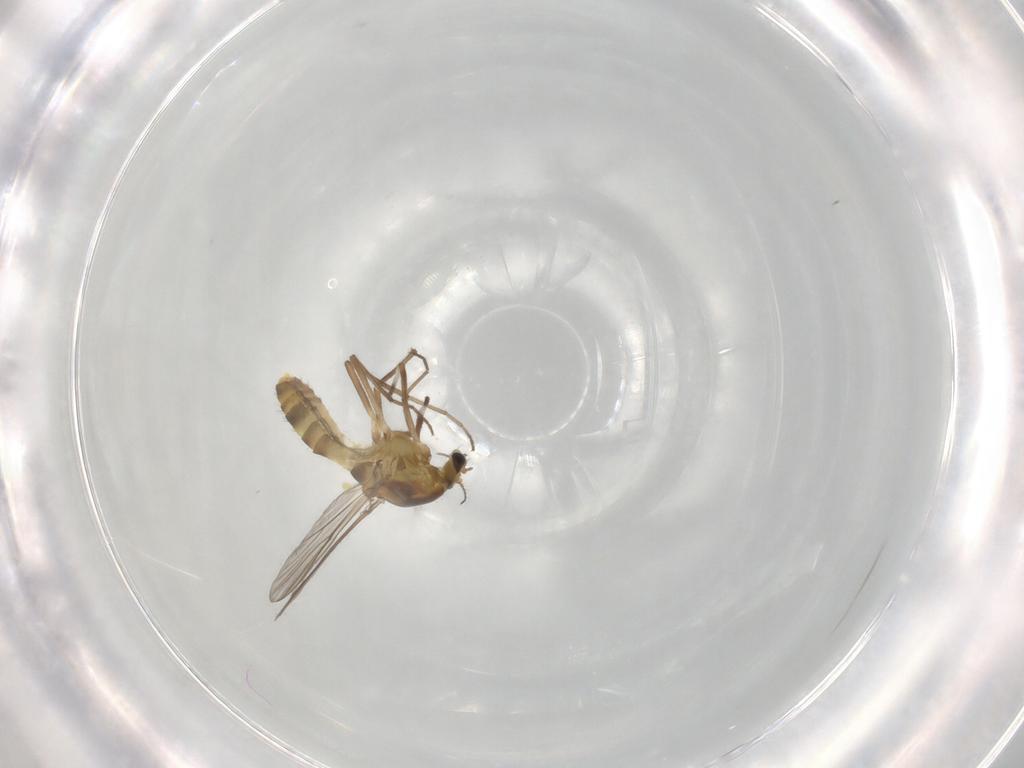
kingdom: Animalia
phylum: Arthropoda
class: Insecta
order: Diptera
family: Chironomidae
